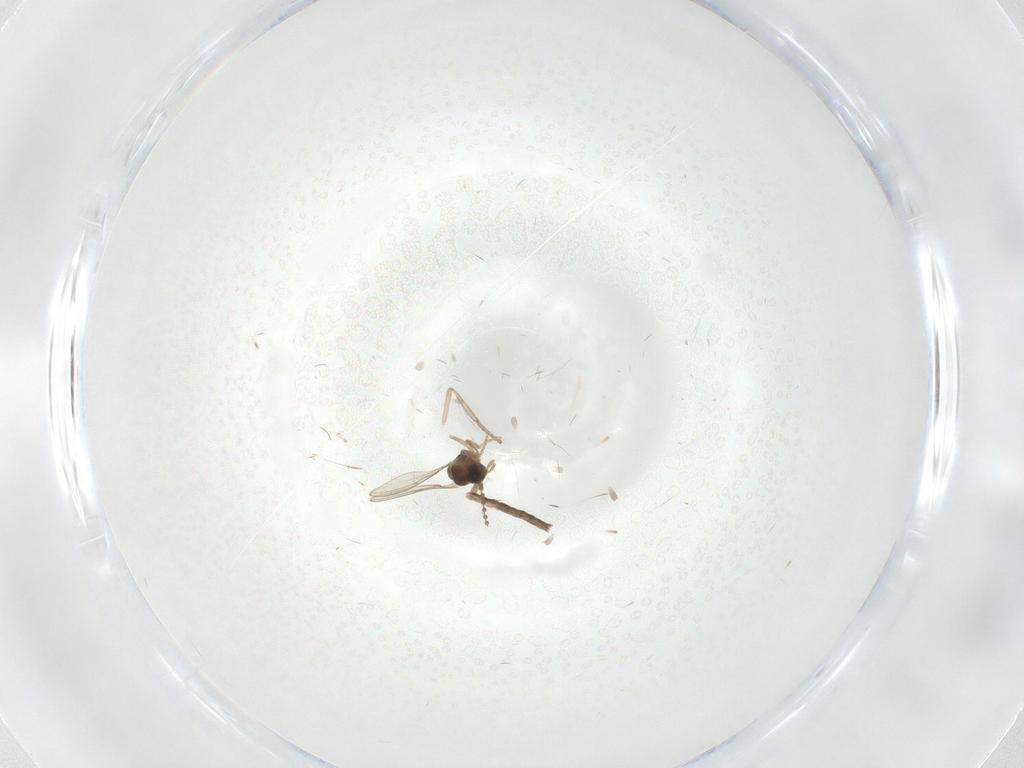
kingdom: Animalia
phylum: Arthropoda
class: Insecta
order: Diptera
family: Cecidomyiidae
